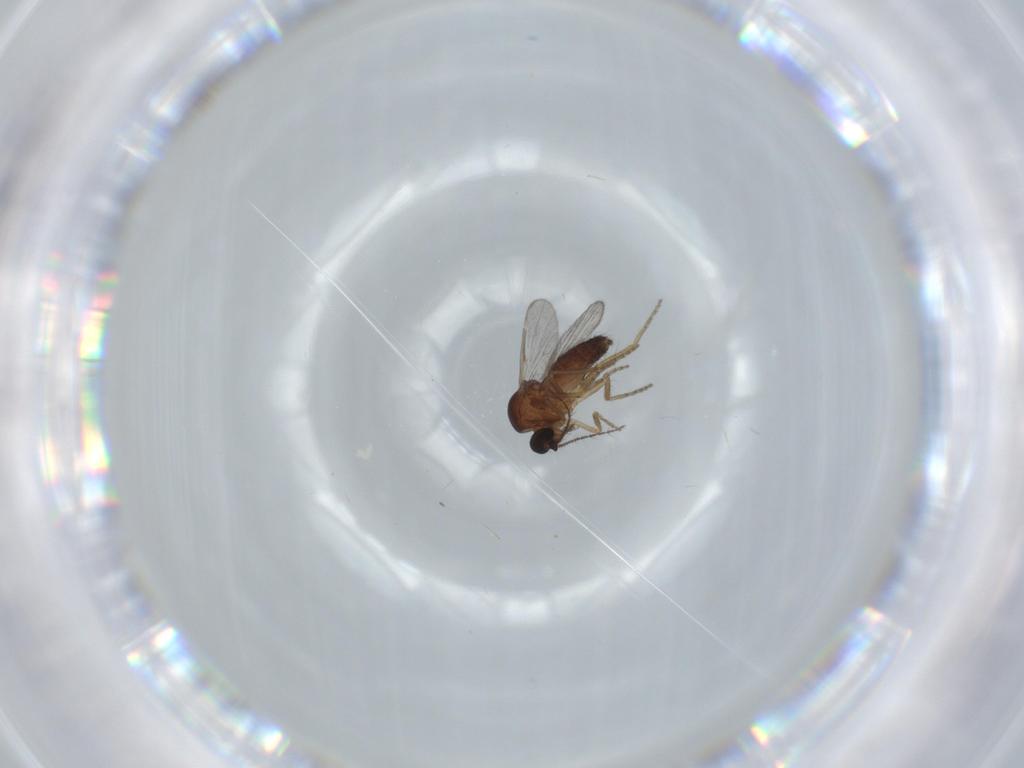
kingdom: Animalia
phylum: Arthropoda
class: Insecta
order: Diptera
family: Ceratopogonidae
